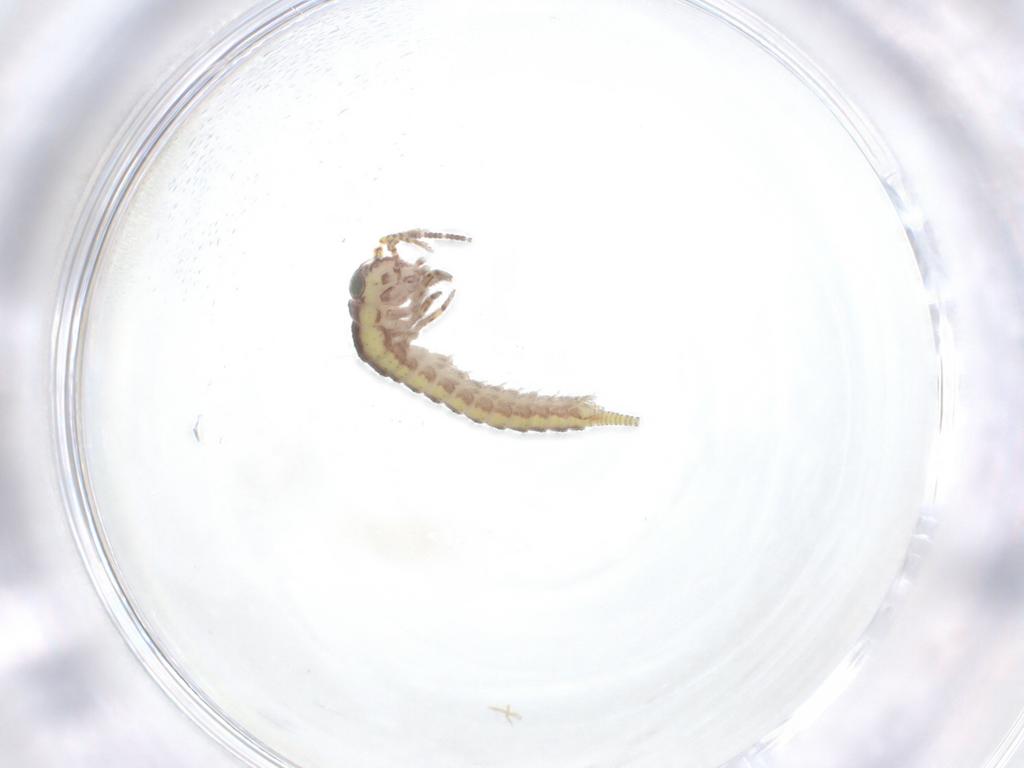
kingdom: Animalia
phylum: Arthropoda
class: Insecta
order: Archaeognatha
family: Meinertellidae
